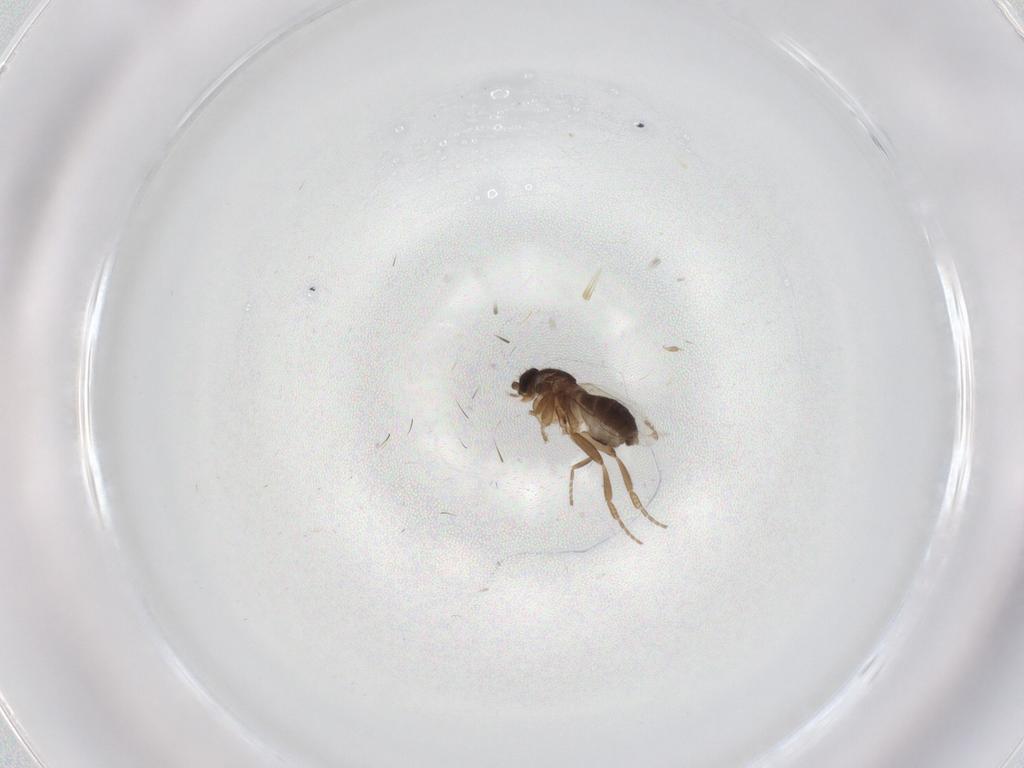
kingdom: Animalia
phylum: Arthropoda
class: Insecta
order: Diptera
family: Phoridae
